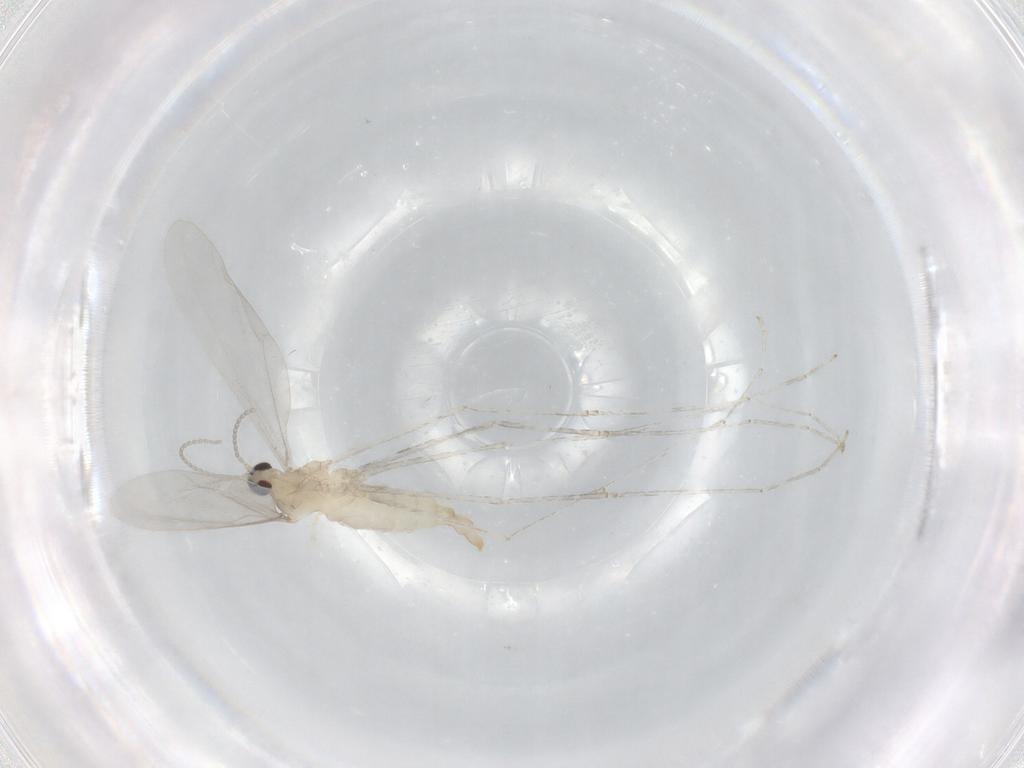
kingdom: Animalia
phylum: Arthropoda
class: Insecta
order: Diptera
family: Cecidomyiidae
